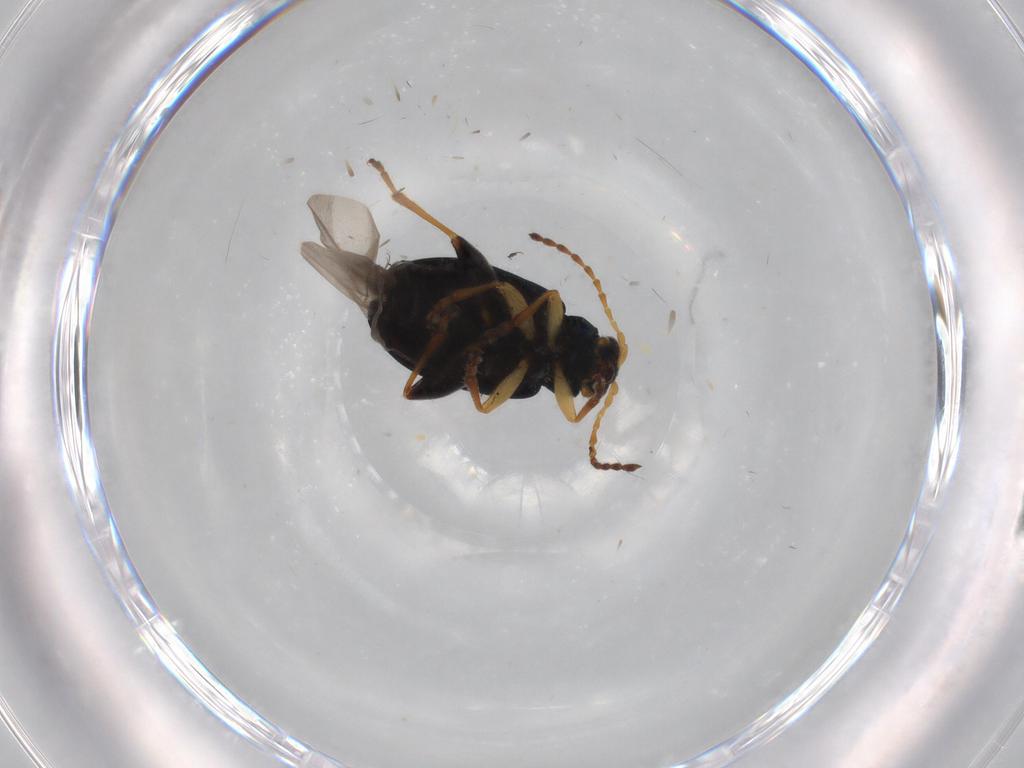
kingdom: Animalia
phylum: Arthropoda
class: Insecta
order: Coleoptera
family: Chrysomelidae
